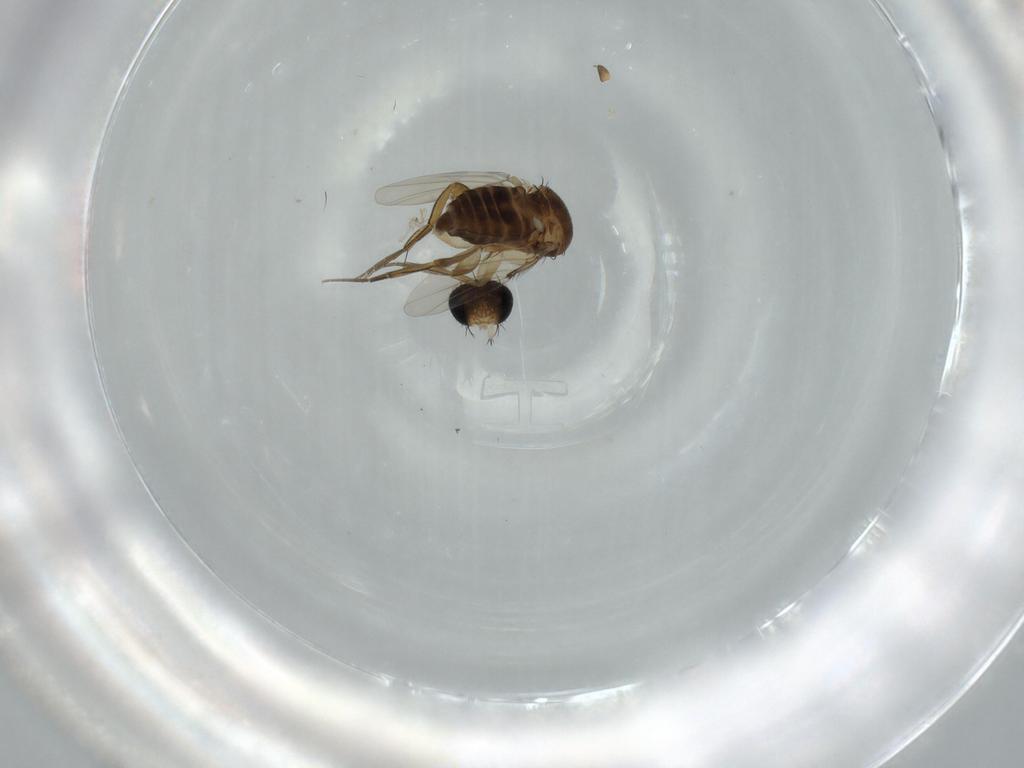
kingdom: Animalia
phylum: Arthropoda
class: Insecta
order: Diptera
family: Phoridae
